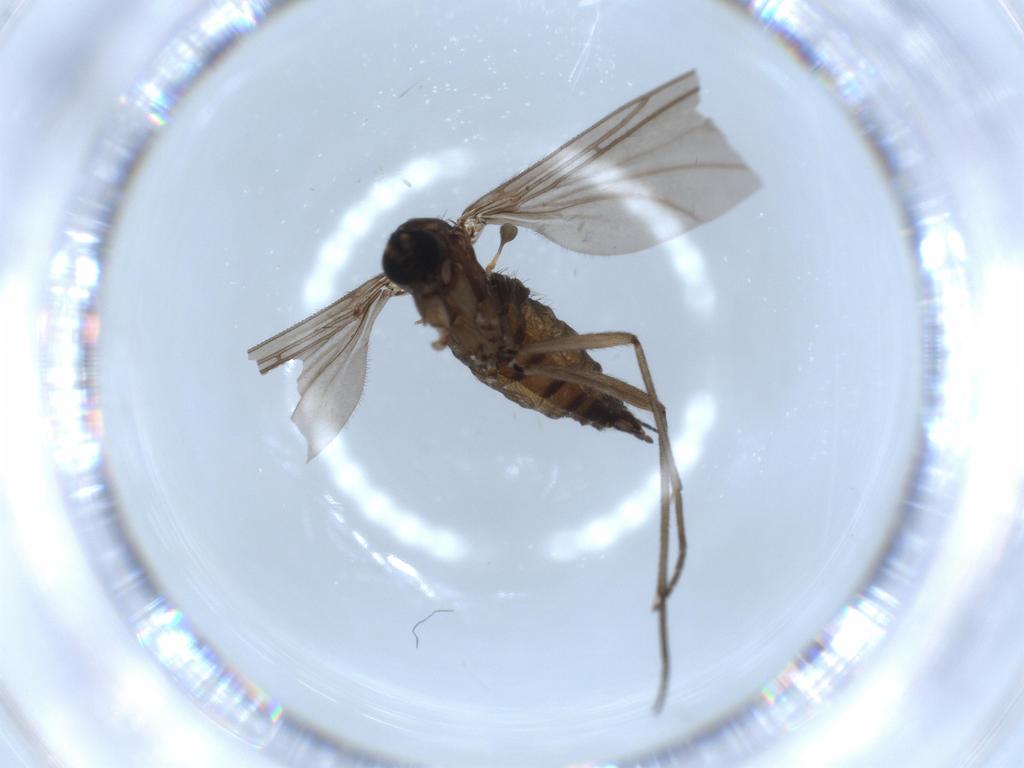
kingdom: Animalia
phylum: Arthropoda
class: Insecta
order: Diptera
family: Sciaridae
